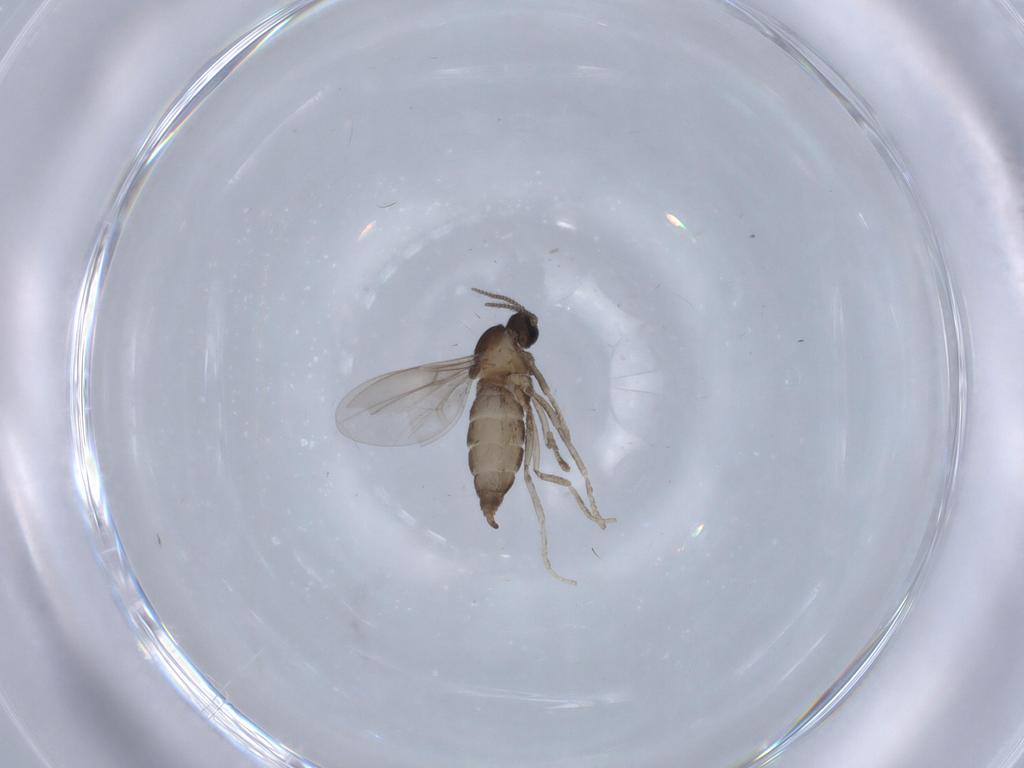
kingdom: Animalia
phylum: Arthropoda
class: Insecta
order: Diptera
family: Cecidomyiidae
